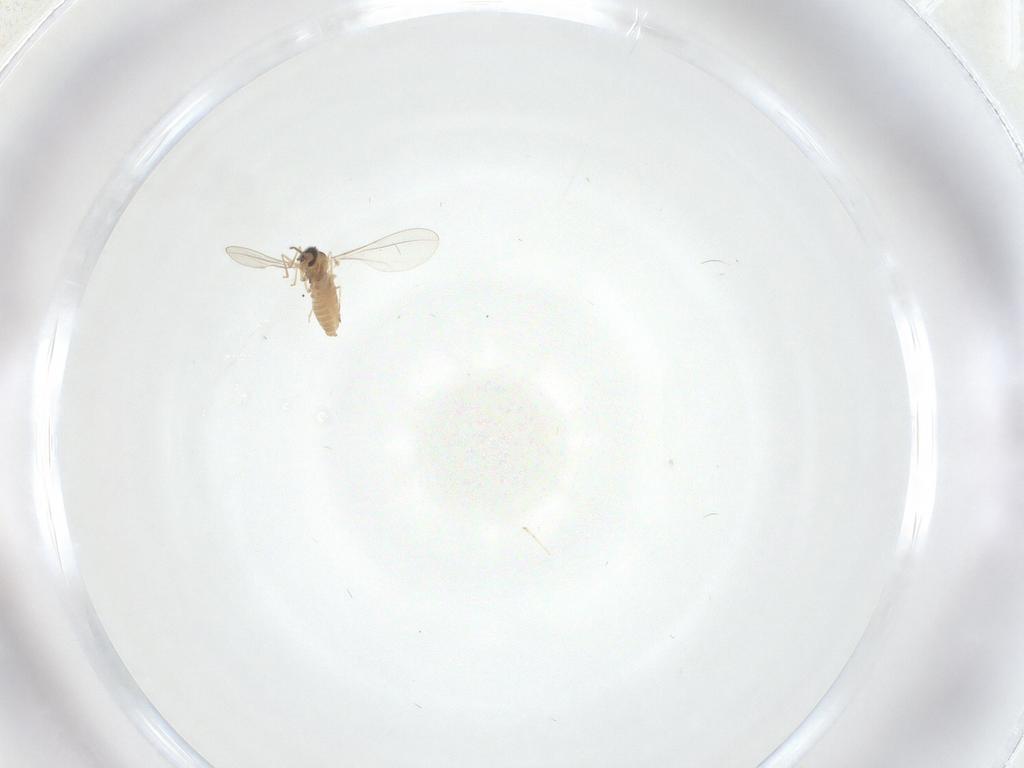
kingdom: Animalia
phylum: Arthropoda
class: Insecta
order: Diptera
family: Cecidomyiidae
